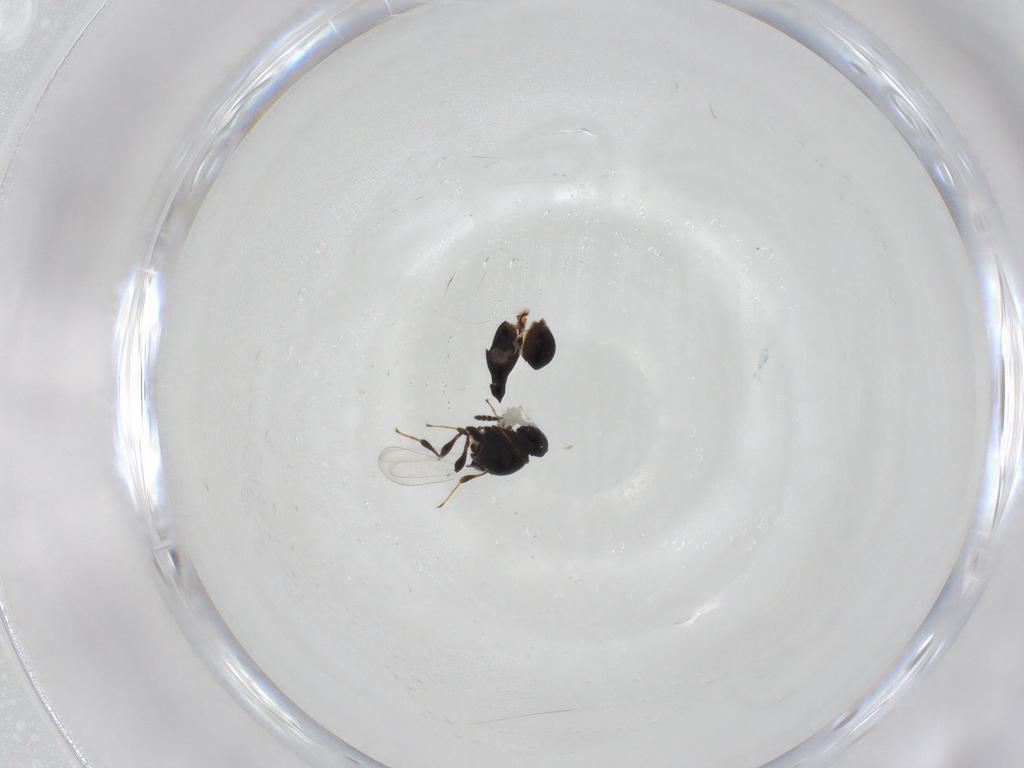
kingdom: Animalia
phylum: Arthropoda
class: Insecta
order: Hymenoptera
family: Platygastridae
